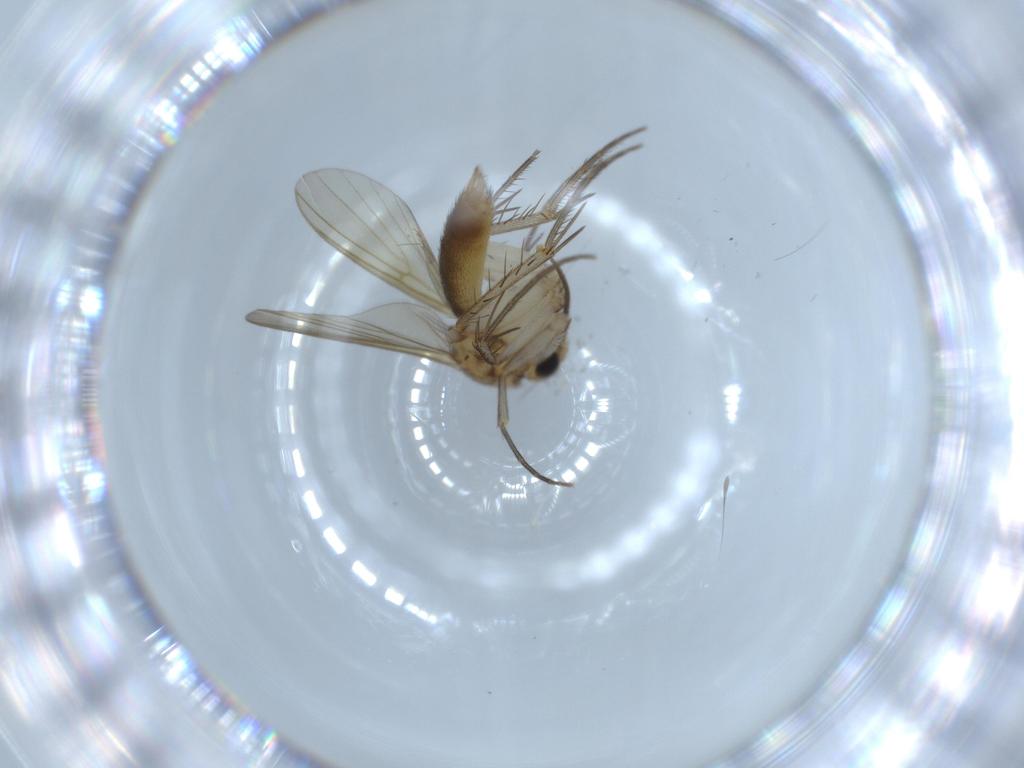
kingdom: Animalia
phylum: Arthropoda
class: Insecta
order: Diptera
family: Mycetophilidae
